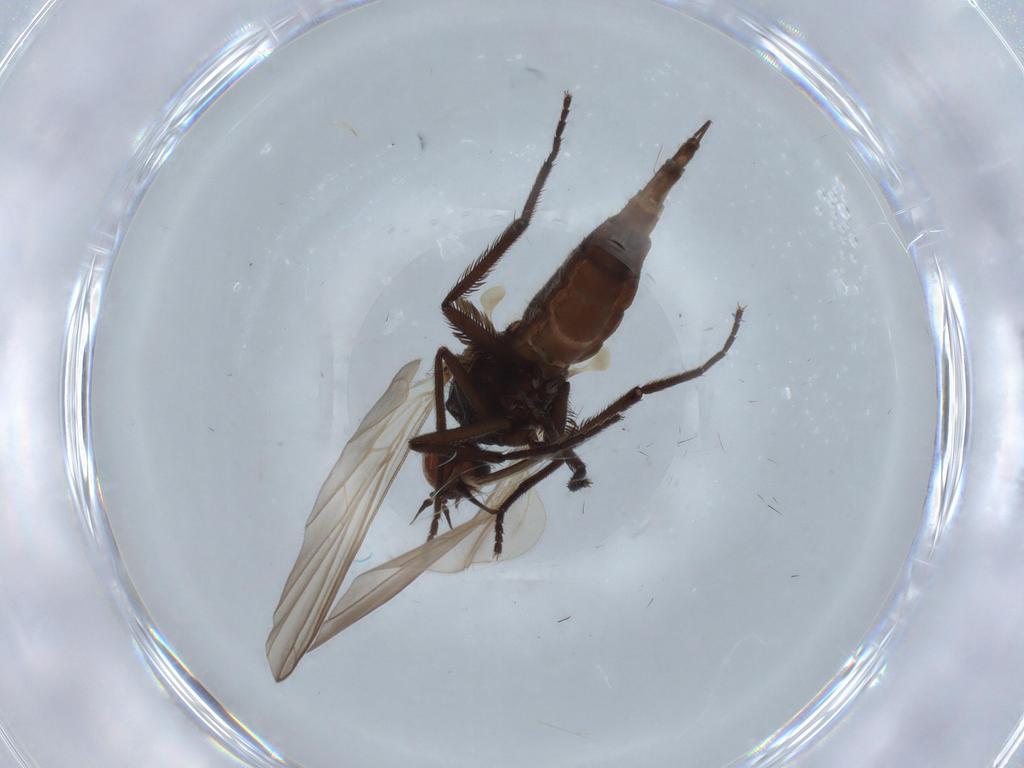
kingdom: Animalia
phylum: Arthropoda
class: Insecta
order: Diptera
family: Empididae
